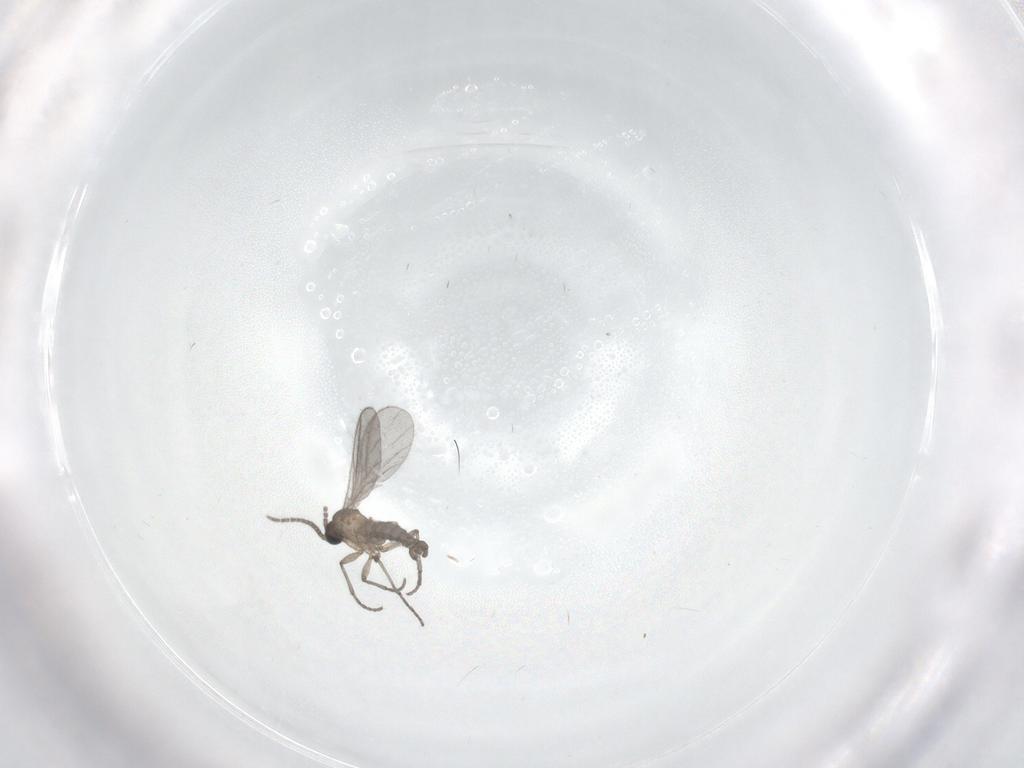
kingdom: Animalia
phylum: Arthropoda
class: Insecta
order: Diptera
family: Sciaridae
